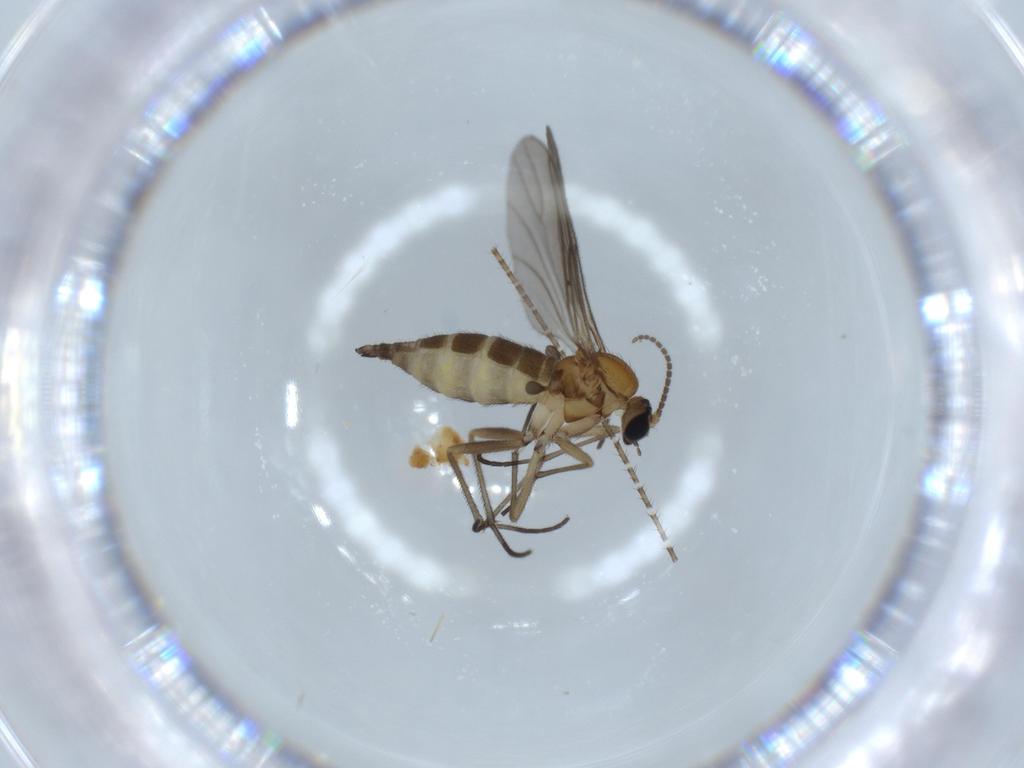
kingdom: Animalia
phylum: Arthropoda
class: Insecta
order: Diptera
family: Sciaridae
